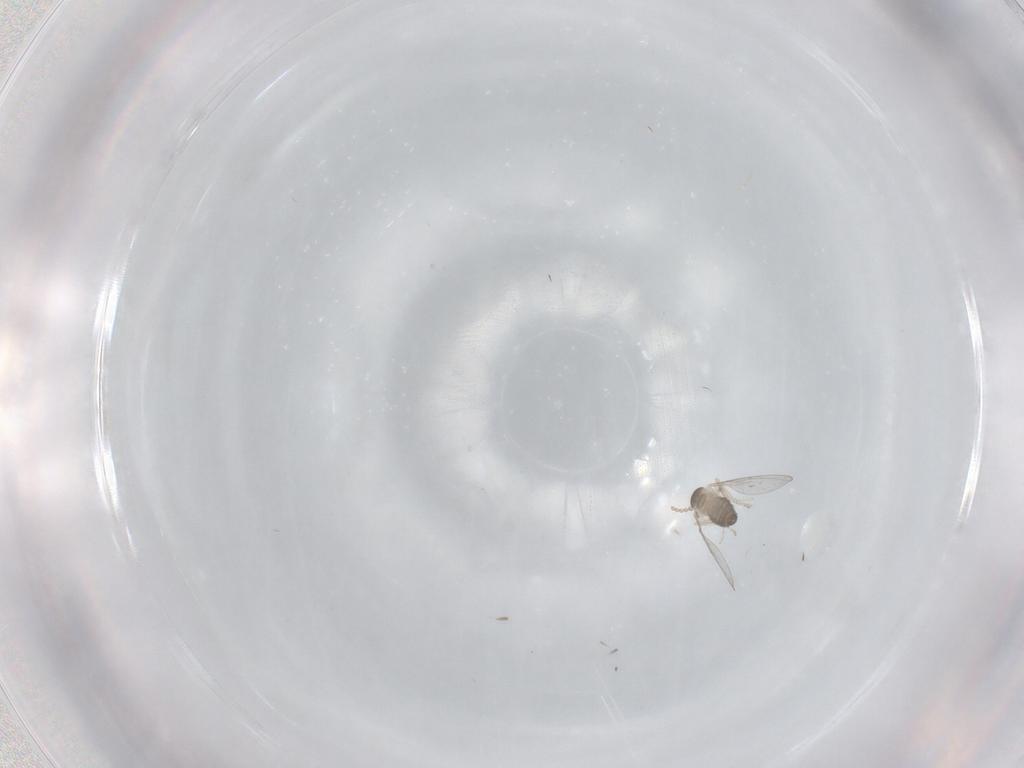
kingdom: Animalia
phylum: Arthropoda
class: Insecta
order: Diptera
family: Cecidomyiidae
